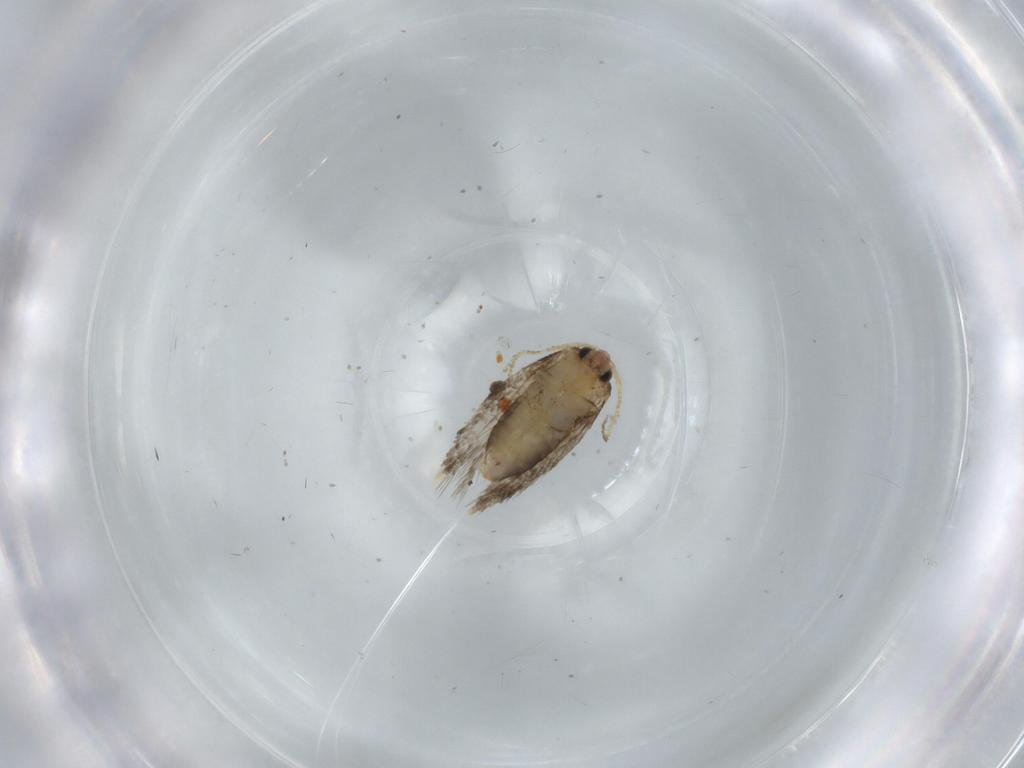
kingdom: Animalia
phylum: Arthropoda
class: Insecta
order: Lepidoptera
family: Nepticulidae
